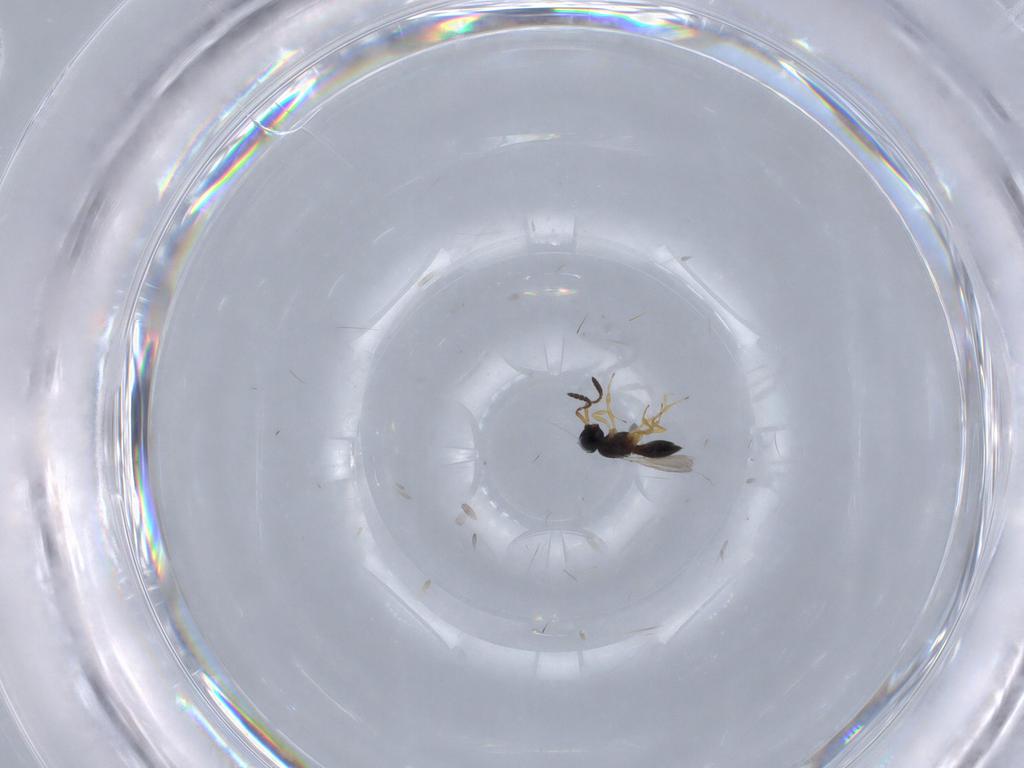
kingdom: Animalia
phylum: Arthropoda
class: Insecta
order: Hymenoptera
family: Scelionidae
